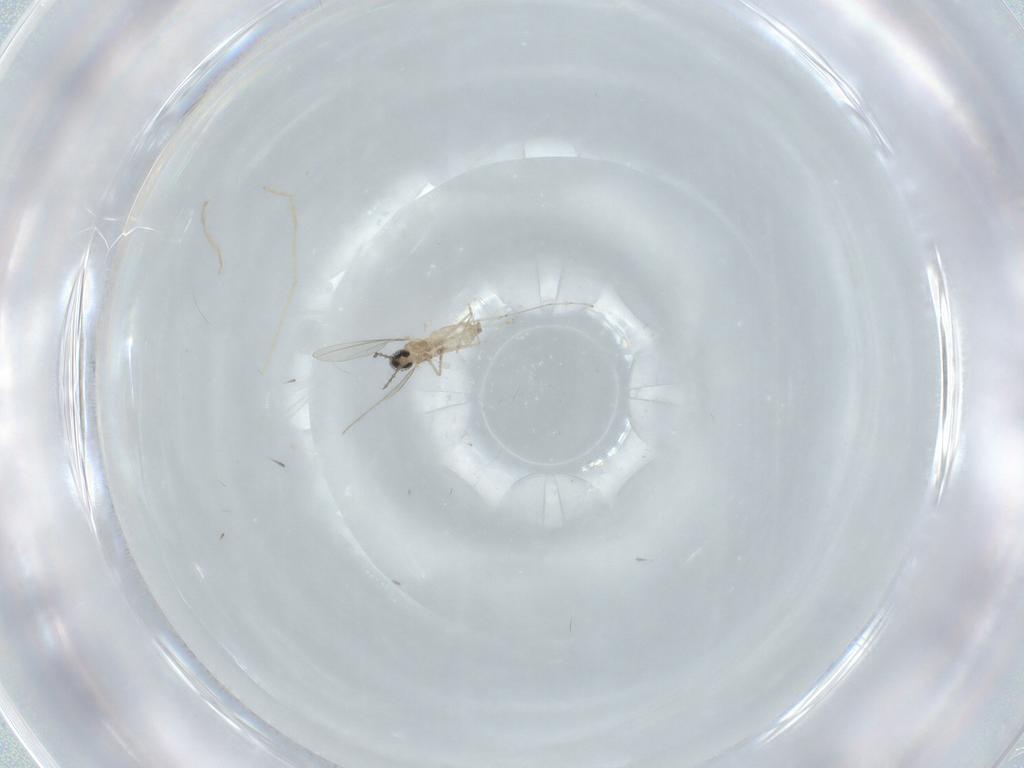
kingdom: Animalia
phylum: Arthropoda
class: Insecta
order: Diptera
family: Cecidomyiidae
